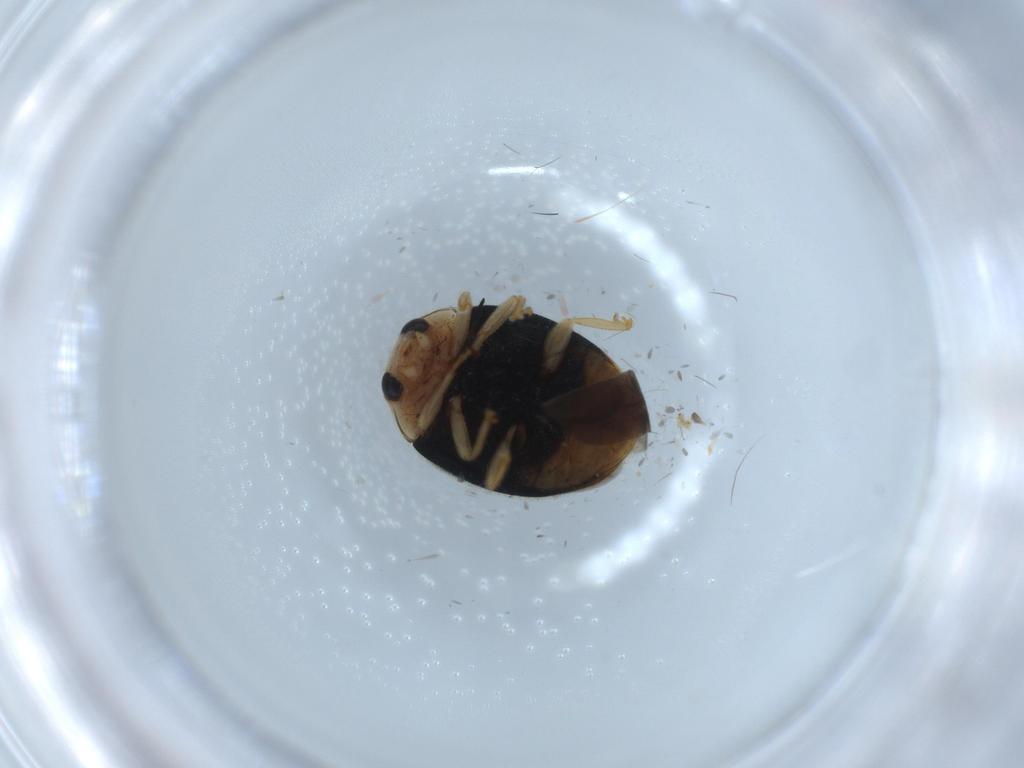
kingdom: Animalia
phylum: Arthropoda
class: Insecta
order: Coleoptera
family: Coccinellidae
